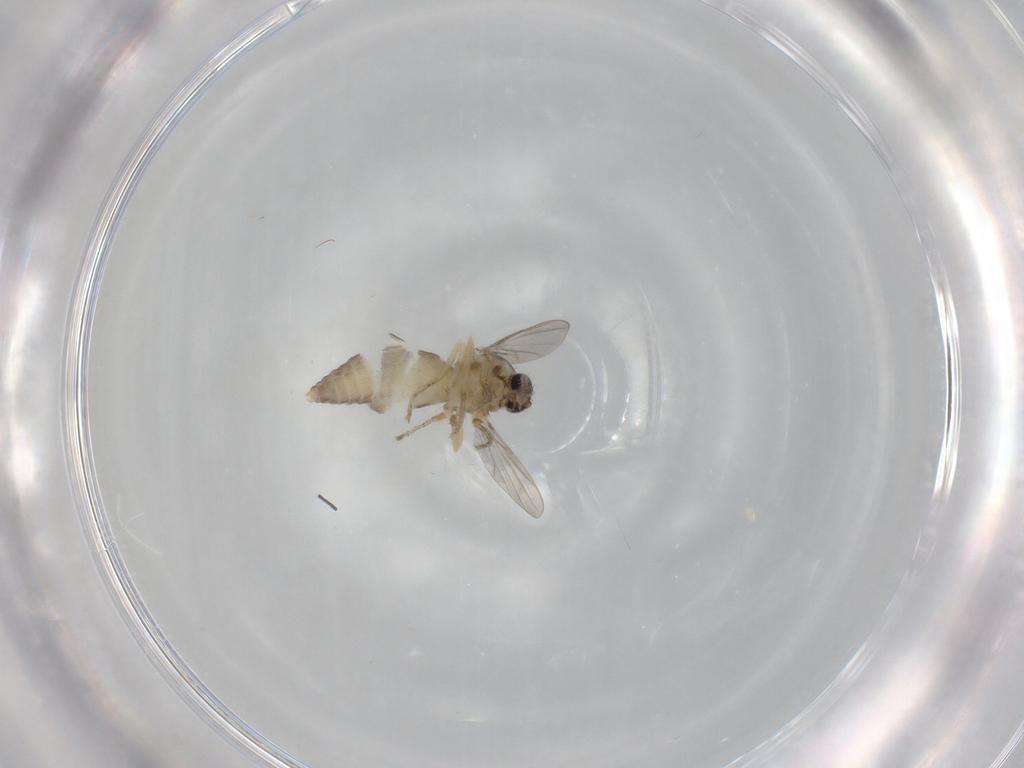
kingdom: Animalia
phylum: Arthropoda
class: Insecta
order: Diptera
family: Ceratopogonidae
